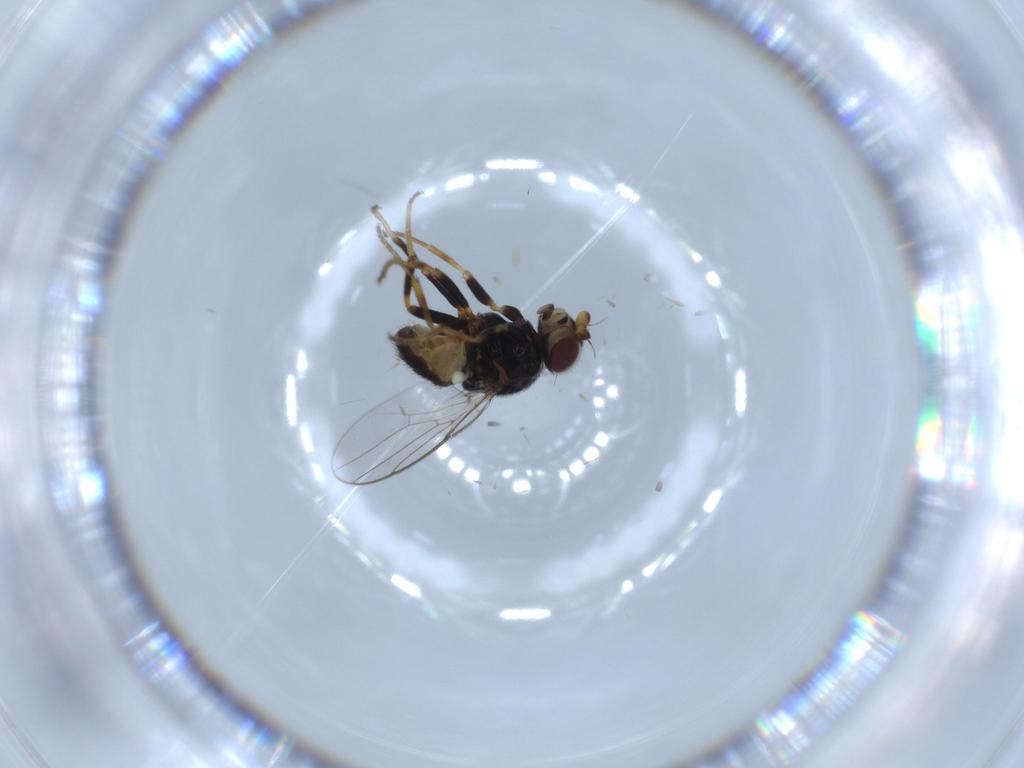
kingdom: Animalia
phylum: Arthropoda
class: Insecta
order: Diptera
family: Chloropidae
